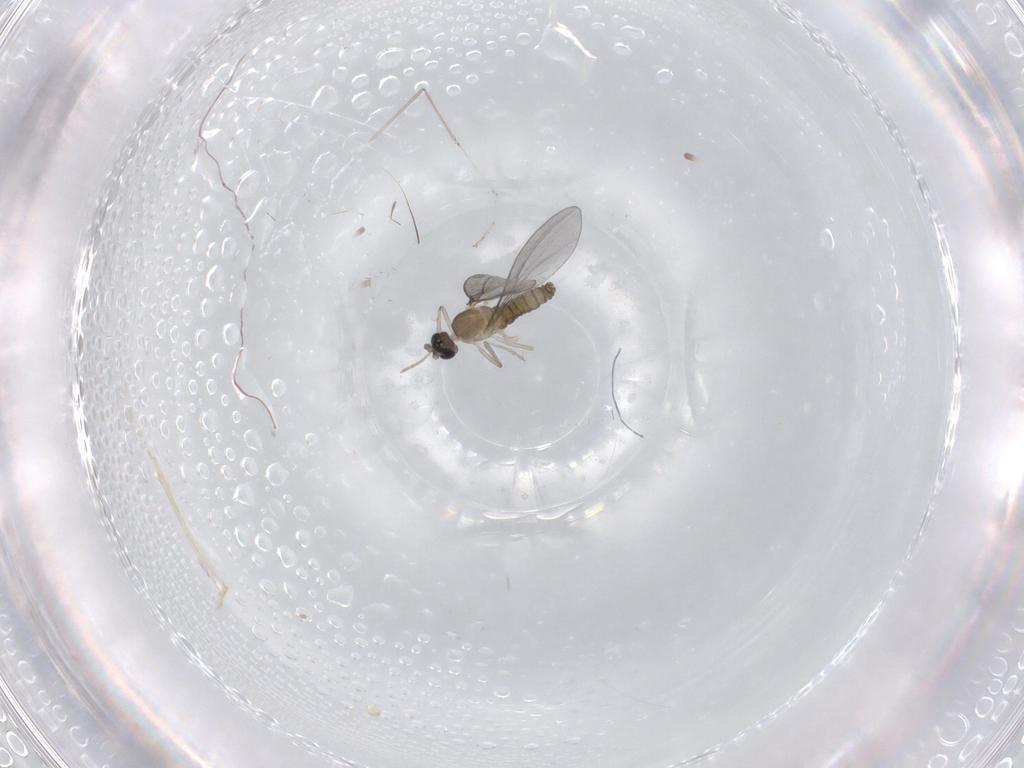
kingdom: Animalia
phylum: Arthropoda
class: Insecta
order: Diptera
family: Cecidomyiidae
